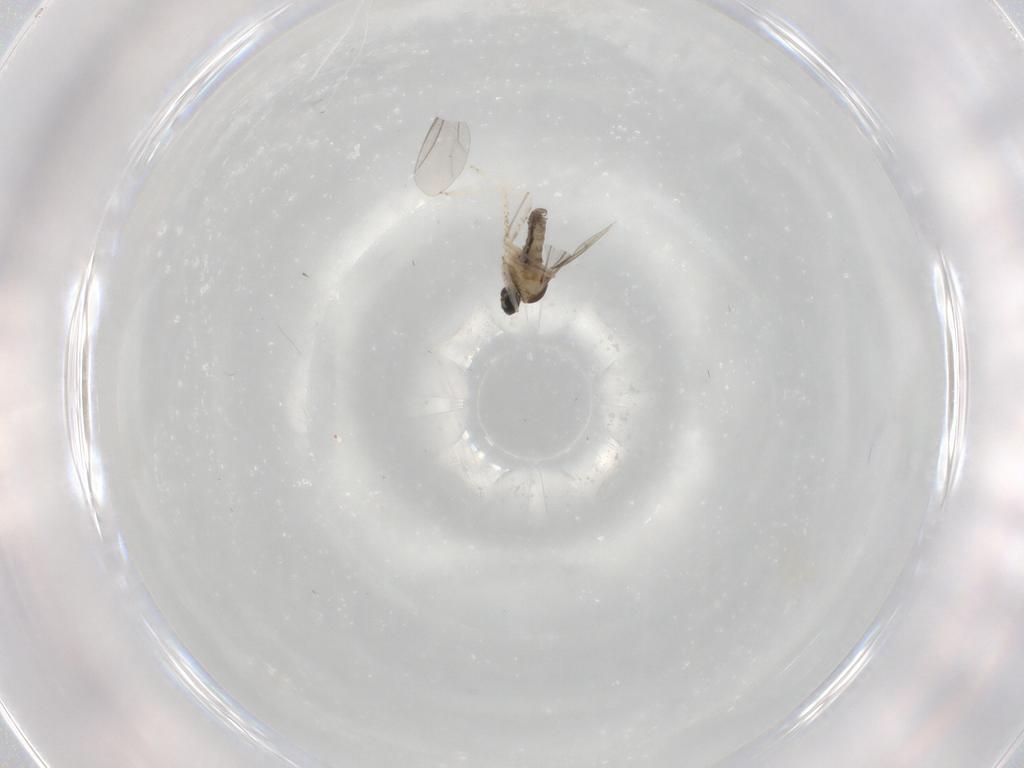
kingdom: Animalia
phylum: Arthropoda
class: Insecta
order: Diptera
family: Cecidomyiidae
